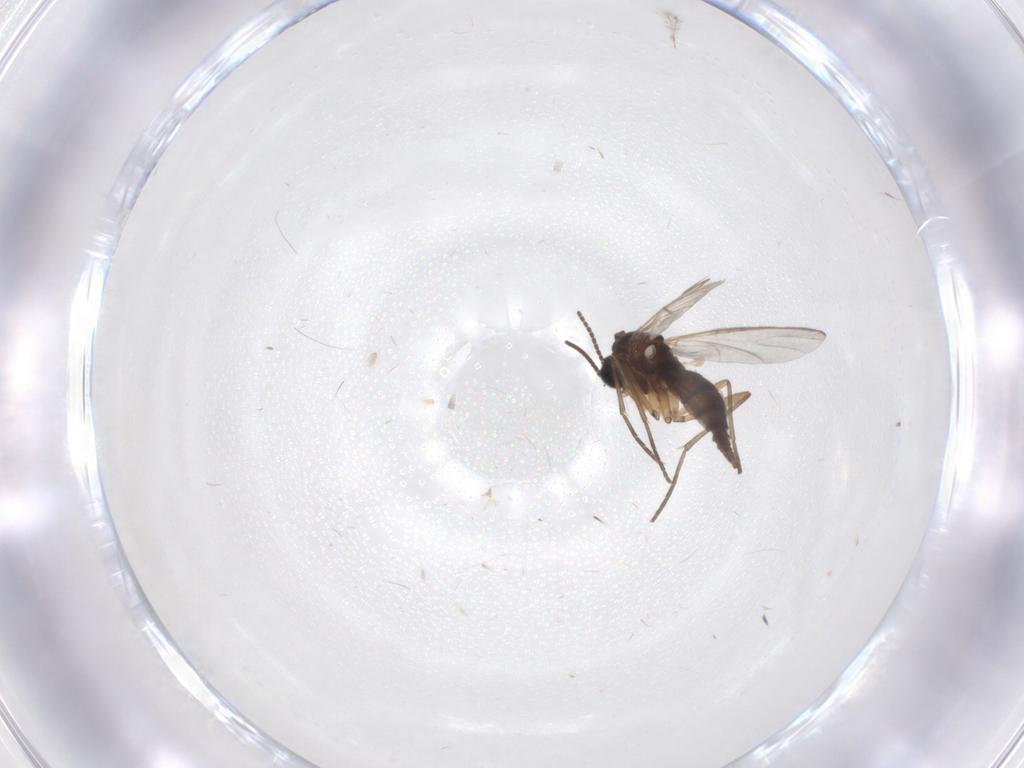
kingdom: Animalia
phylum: Arthropoda
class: Insecta
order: Diptera
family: Sciaridae
